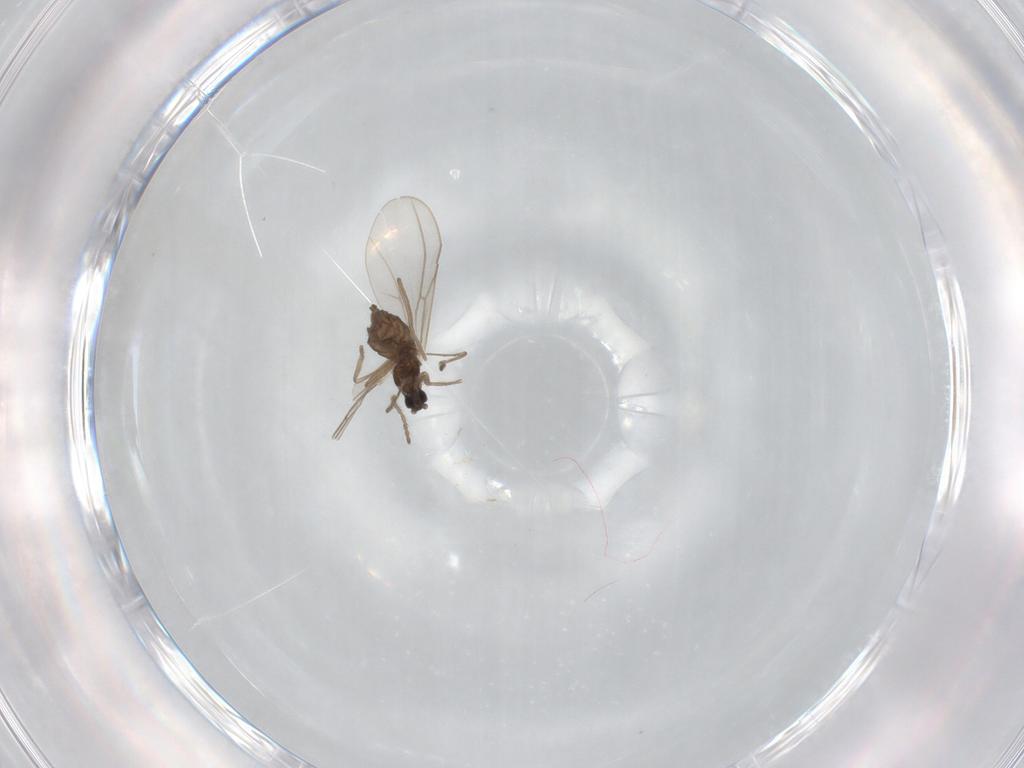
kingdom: Animalia
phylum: Arthropoda
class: Insecta
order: Diptera
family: Cecidomyiidae
